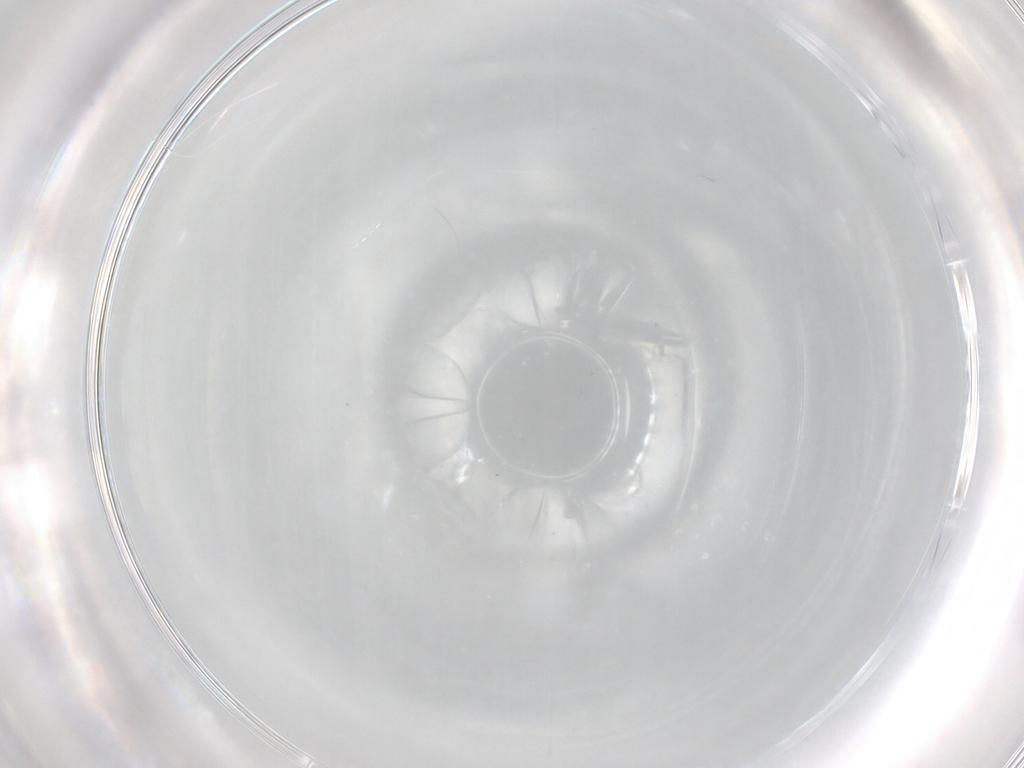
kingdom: Animalia
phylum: Arthropoda
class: Arachnida
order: Trombidiformes
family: Tetranychidae
